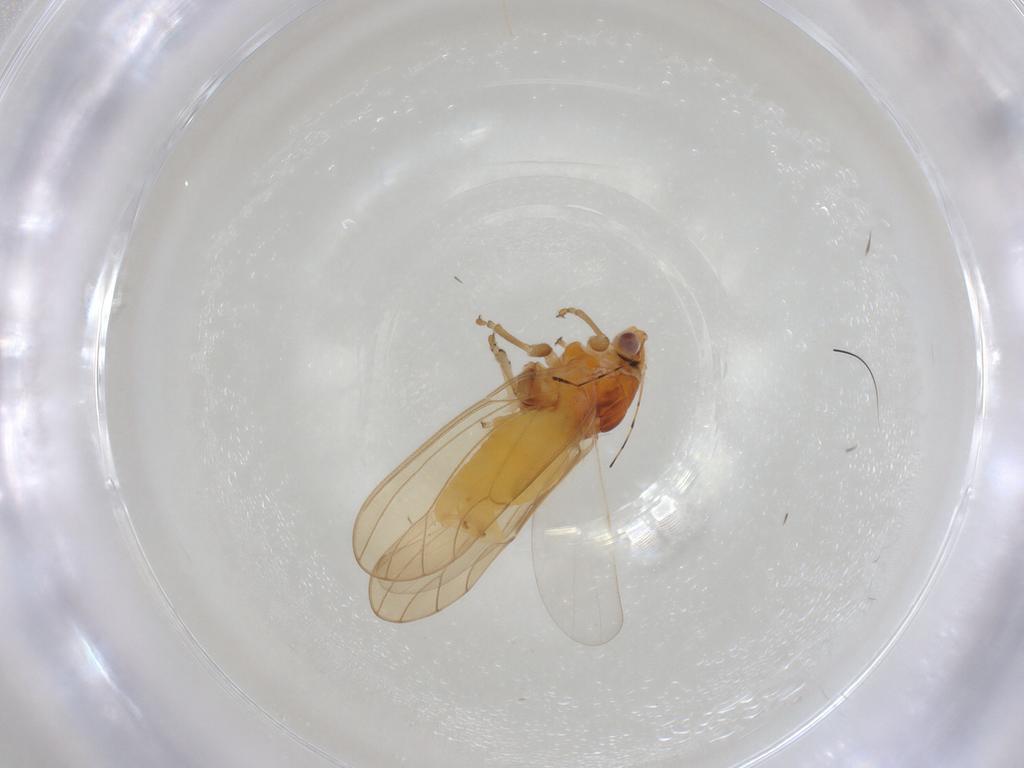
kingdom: Animalia
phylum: Arthropoda
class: Insecta
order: Diptera
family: Sciaridae
